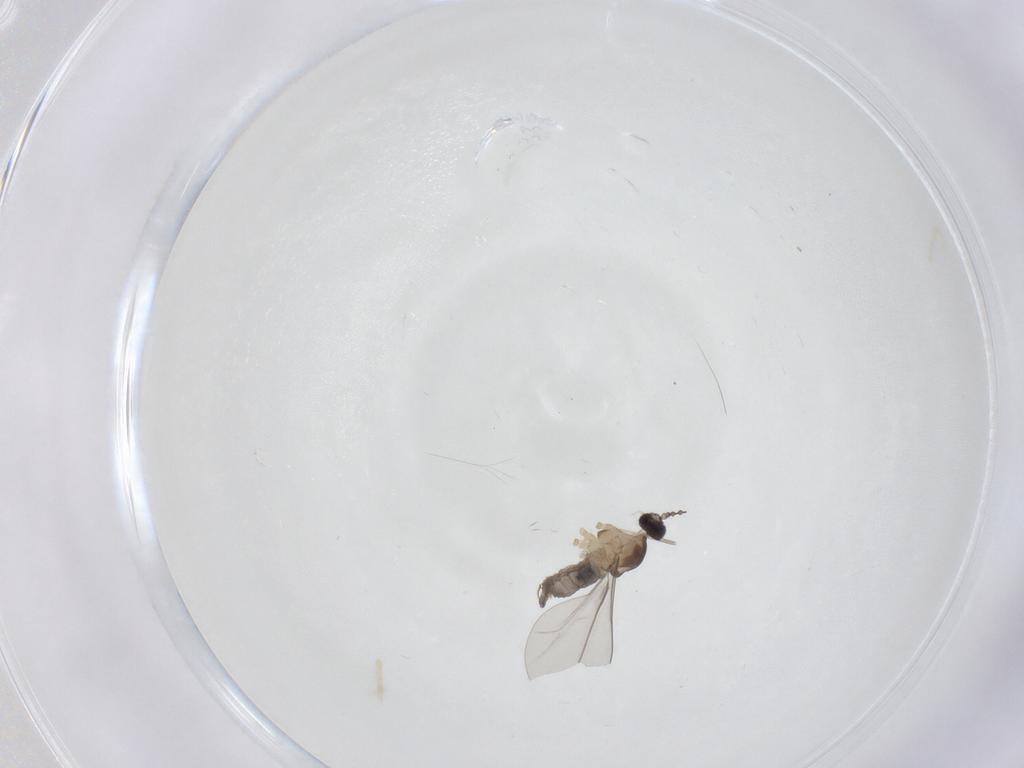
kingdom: Animalia
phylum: Arthropoda
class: Insecta
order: Diptera
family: Cecidomyiidae
